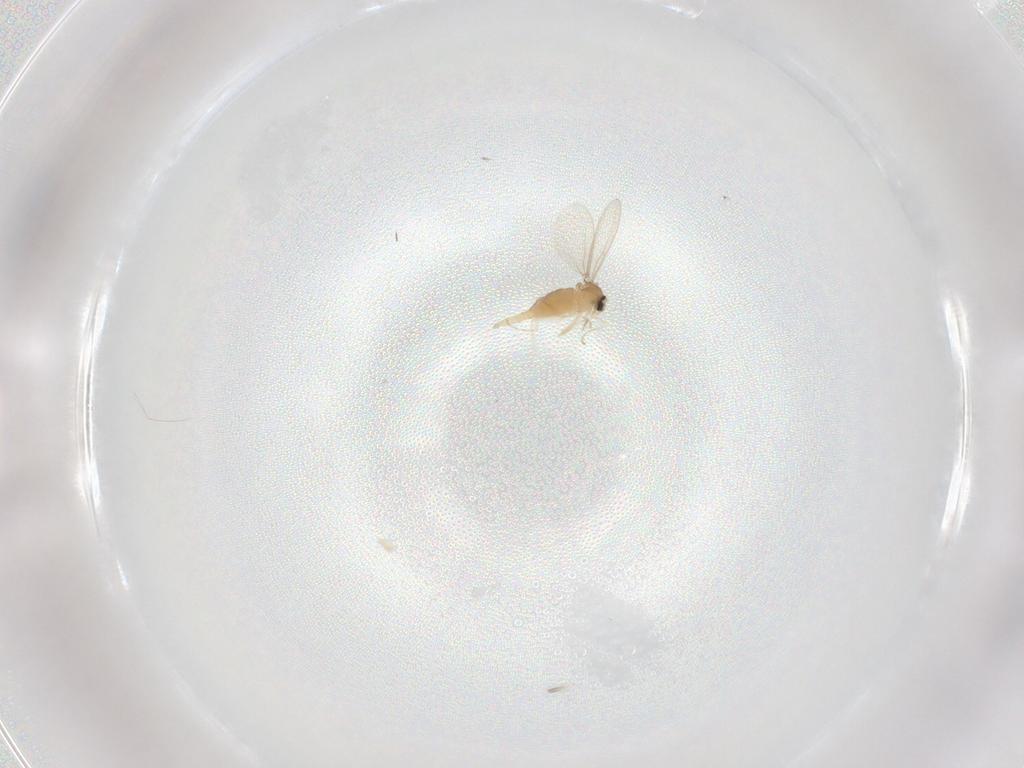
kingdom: Animalia
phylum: Arthropoda
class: Insecta
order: Diptera
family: Cecidomyiidae
